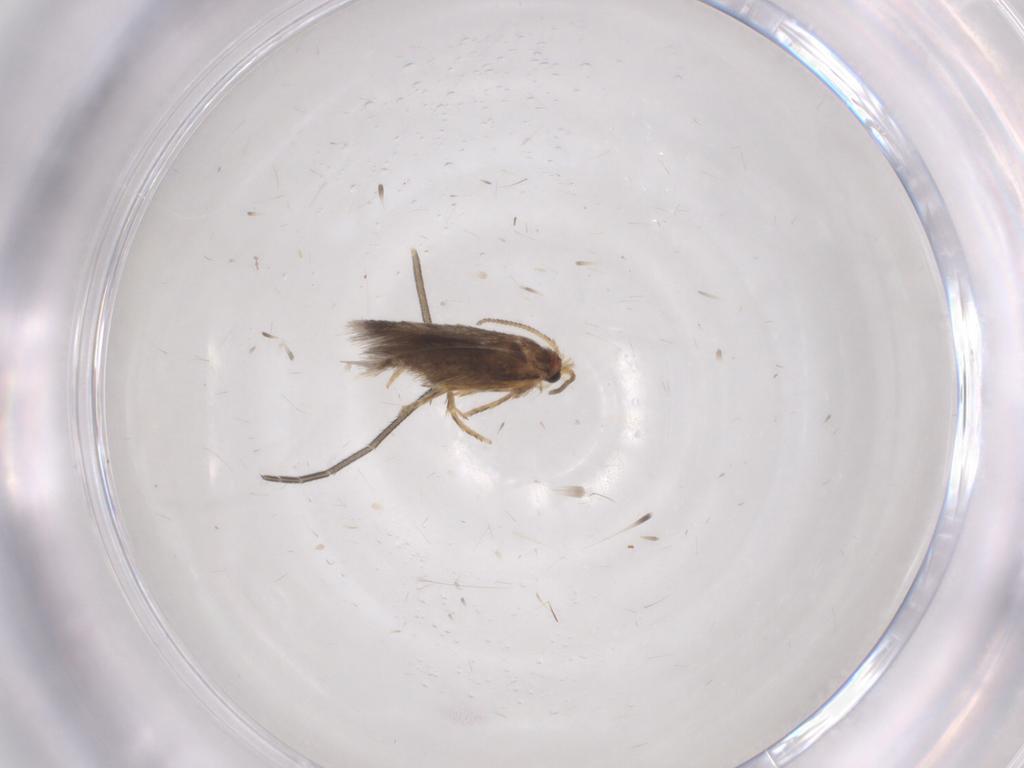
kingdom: Animalia
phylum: Arthropoda
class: Insecta
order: Lepidoptera
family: Nepticulidae
